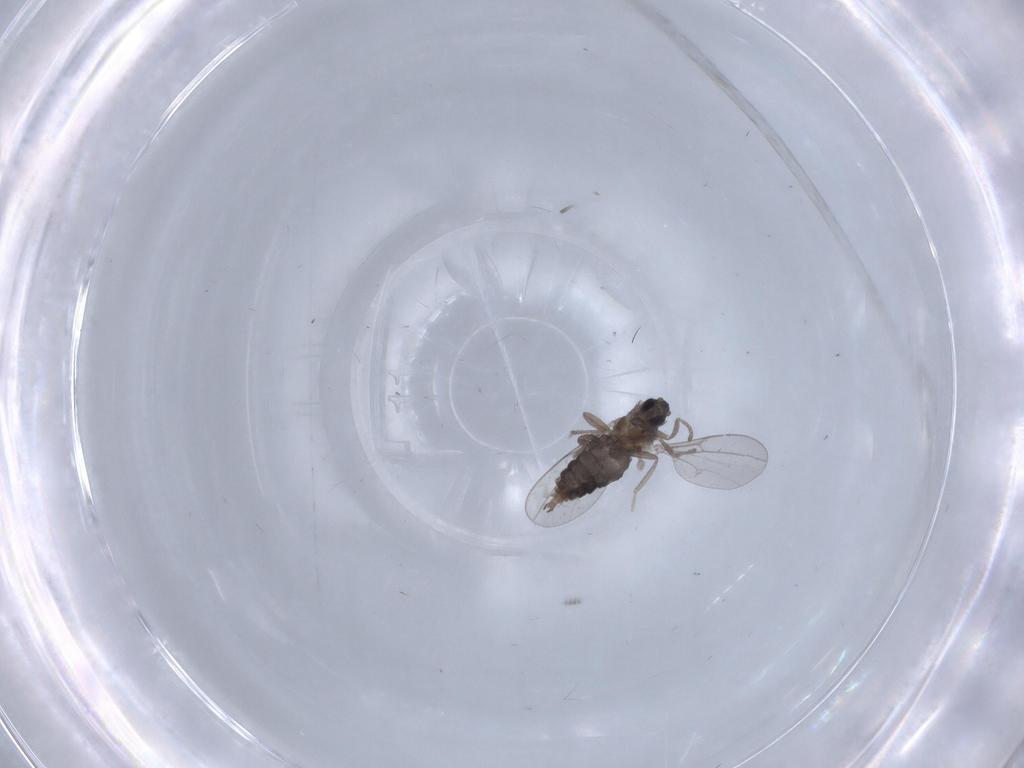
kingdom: Animalia
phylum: Arthropoda
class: Insecta
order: Diptera
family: Cecidomyiidae
